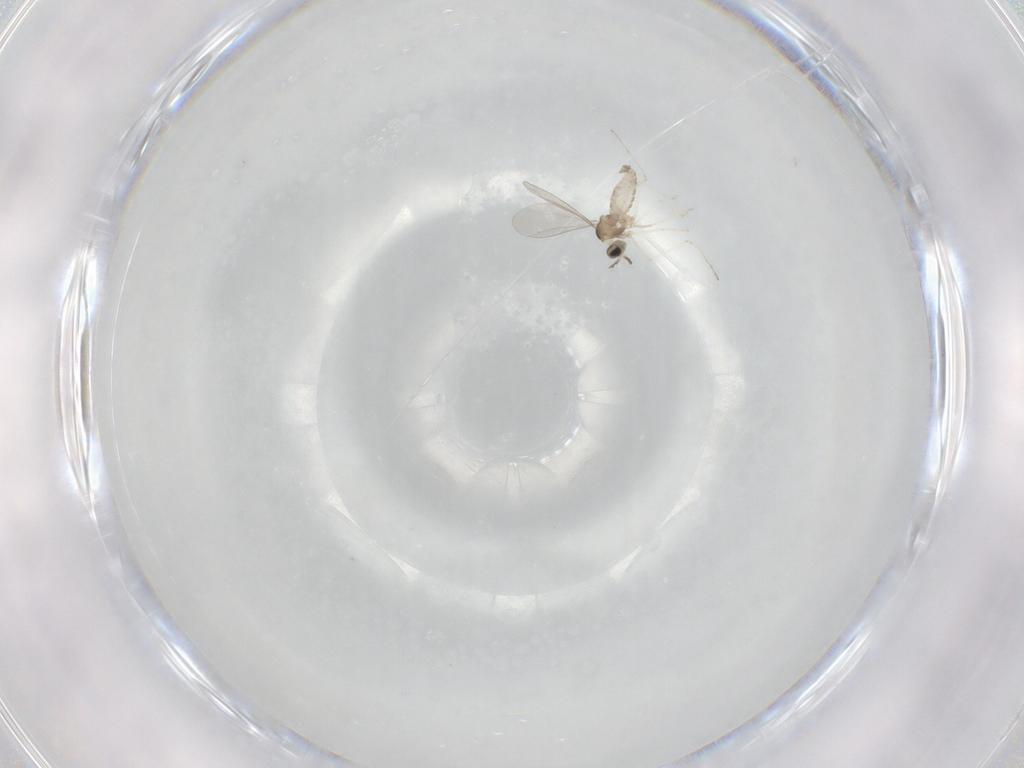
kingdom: Animalia
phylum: Arthropoda
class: Insecta
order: Diptera
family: Cecidomyiidae
